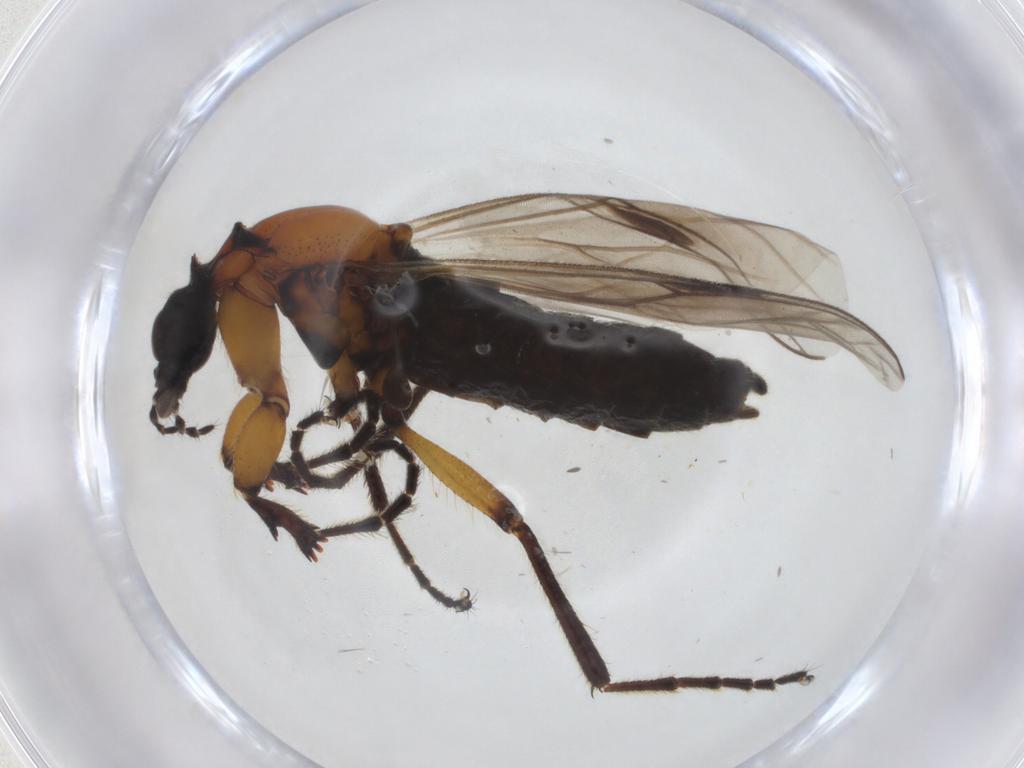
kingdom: Animalia
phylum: Arthropoda
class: Insecta
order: Diptera
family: Bibionidae
